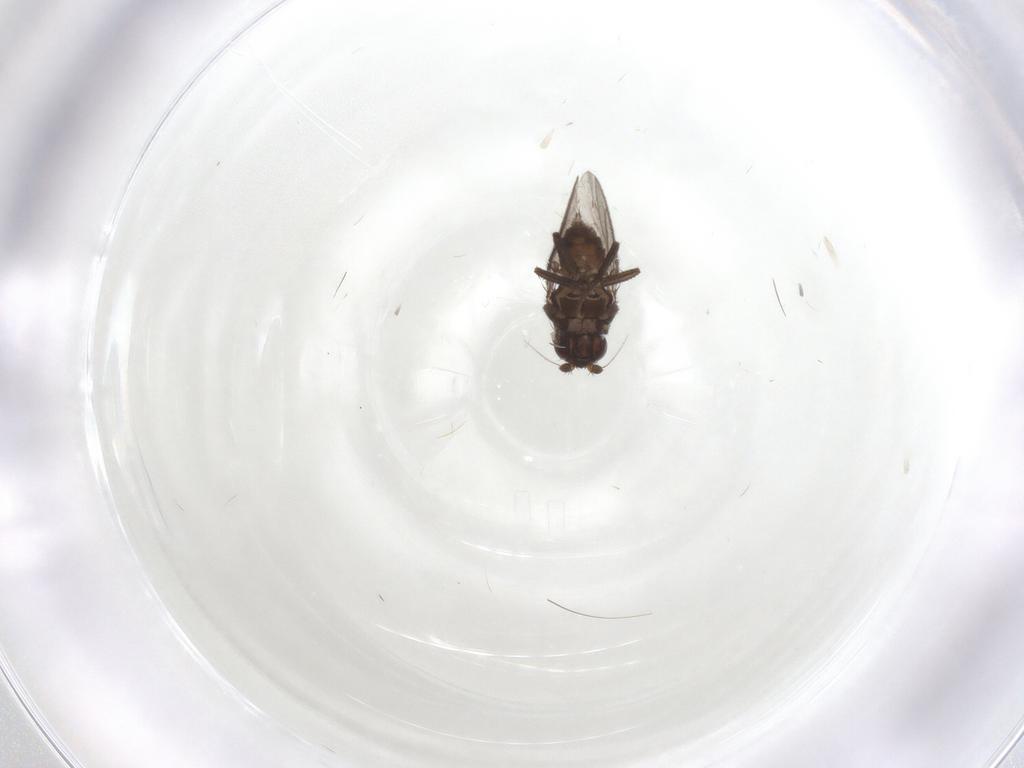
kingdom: Animalia
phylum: Arthropoda
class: Insecta
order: Diptera
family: Sphaeroceridae
